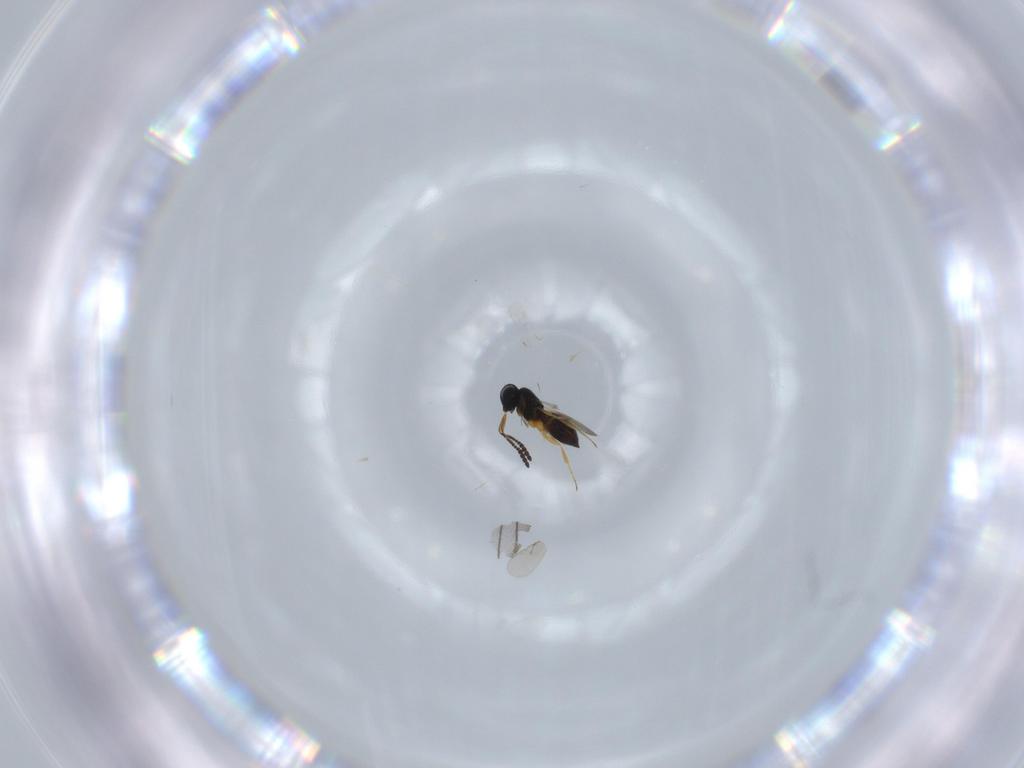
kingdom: Animalia
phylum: Arthropoda
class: Insecta
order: Hymenoptera
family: Scelionidae
